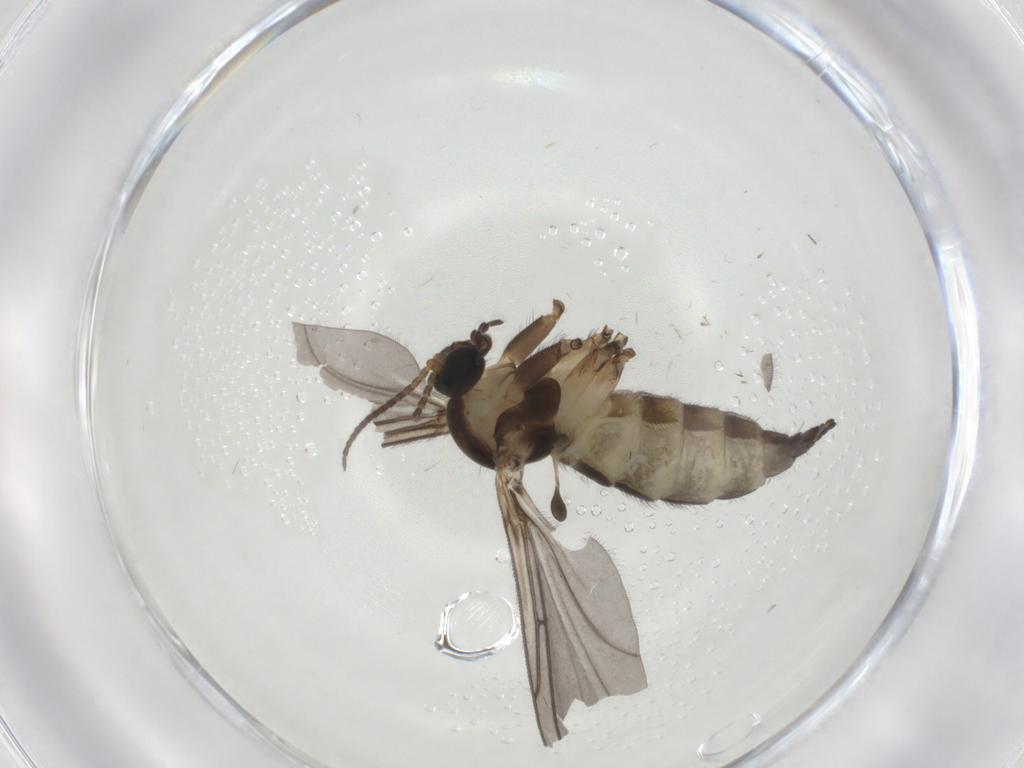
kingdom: Animalia
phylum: Arthropoda
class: Insecta
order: Diptera
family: Sciaridae
